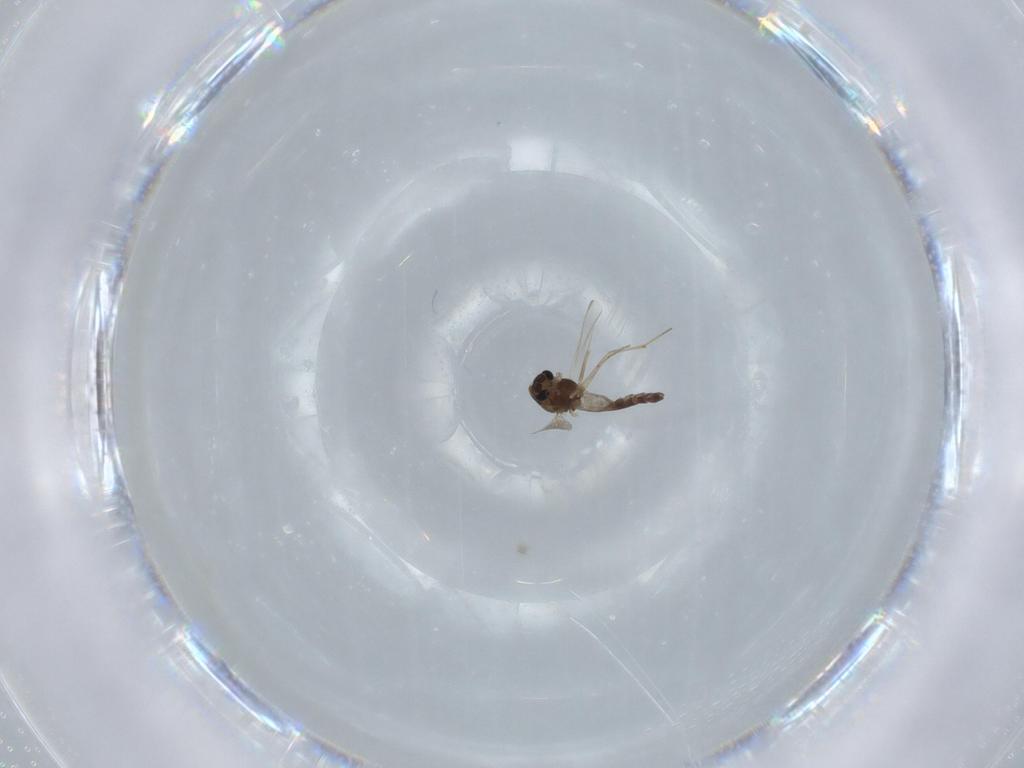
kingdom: Animalia
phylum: Arthropoda
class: Insecta
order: Diptera
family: Chironomidae
